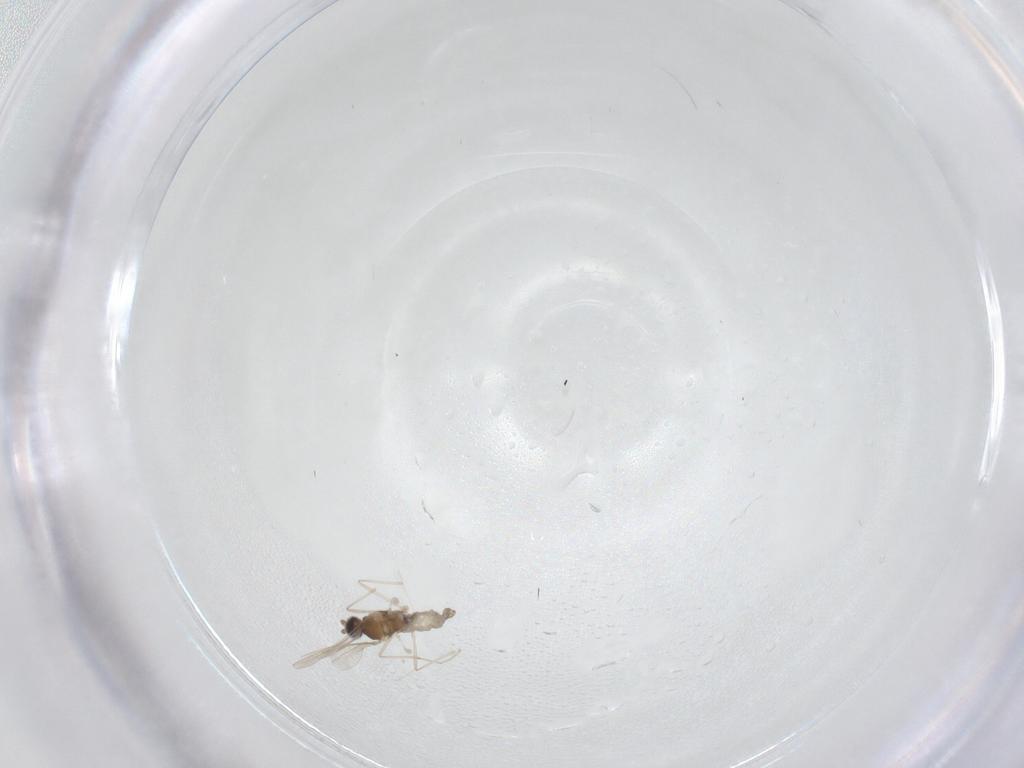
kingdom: Animalia
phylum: Arthropoda
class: Insecta
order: Diptera
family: Cecidomyiidae
